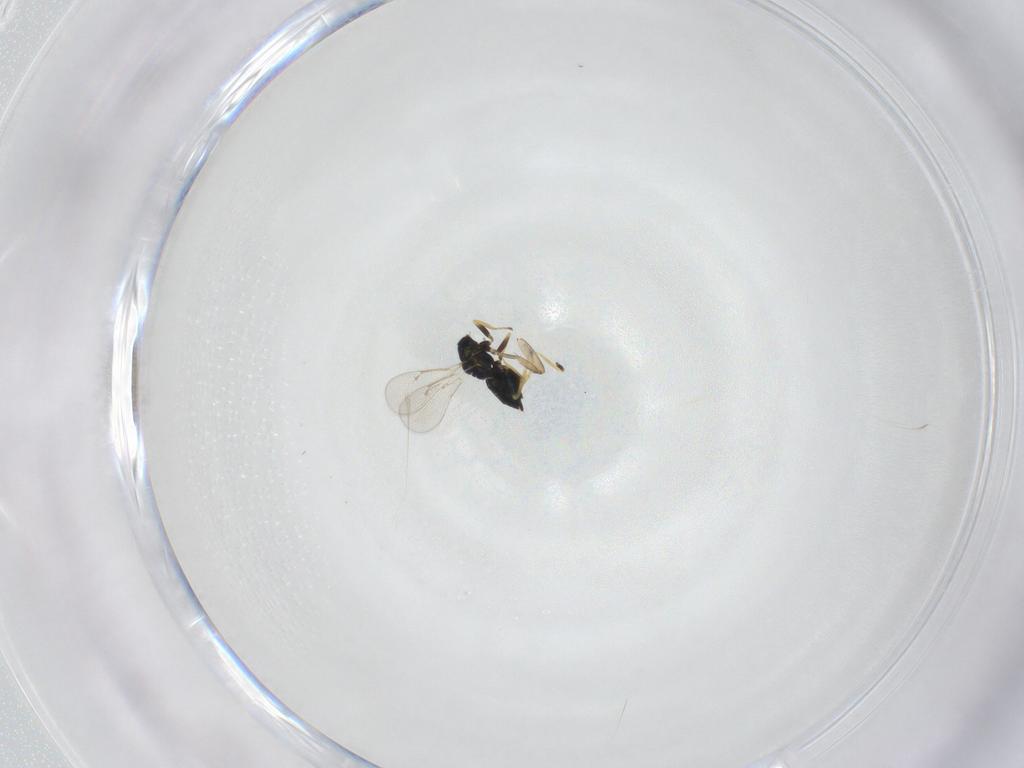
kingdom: Animalia
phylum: Arthropoda
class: Insecta
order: Hymenoptera
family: Eulophidae
